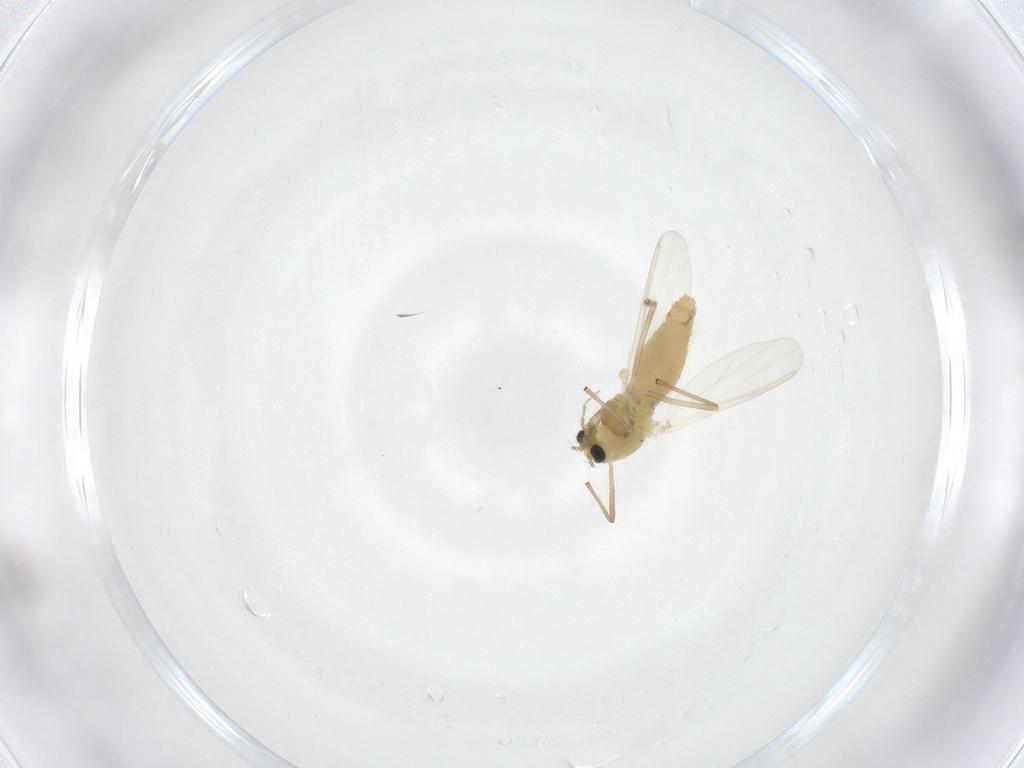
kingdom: Animalia
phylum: Arthropoda
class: Insecta
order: Diptera
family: Chironomidae
